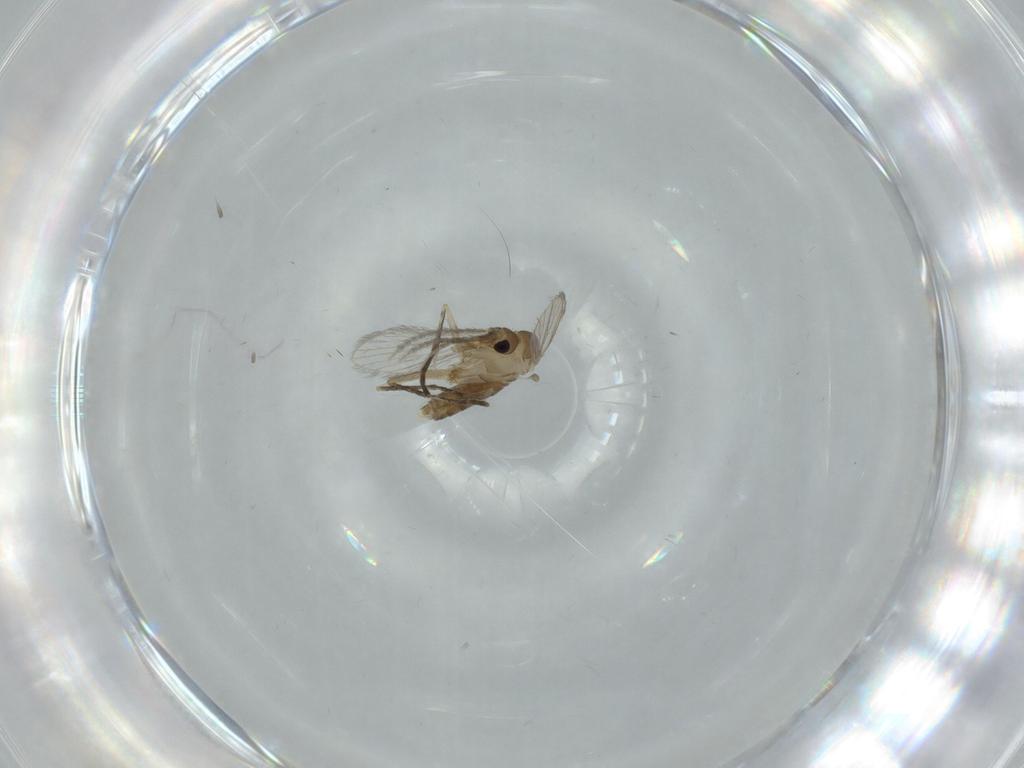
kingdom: Animalia
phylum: Arthropoda
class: Insecta
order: Diptera
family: Psychodidae
